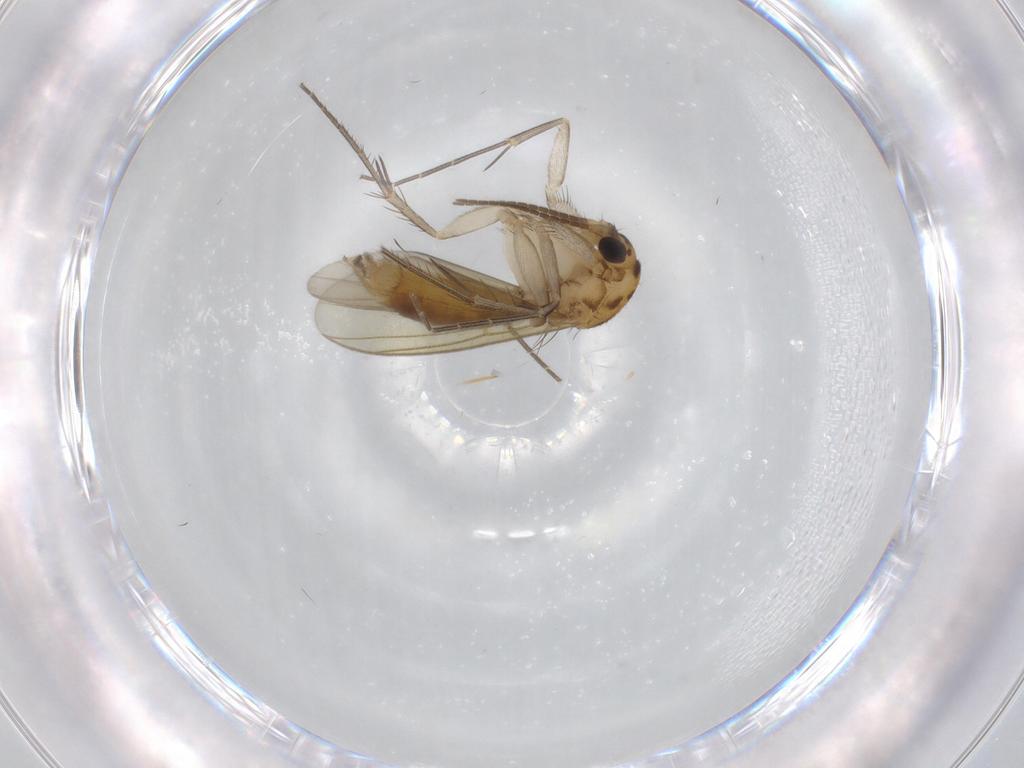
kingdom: Animalia
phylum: Arthropoda
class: Insecta
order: Diptera
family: Mycetophilidae
